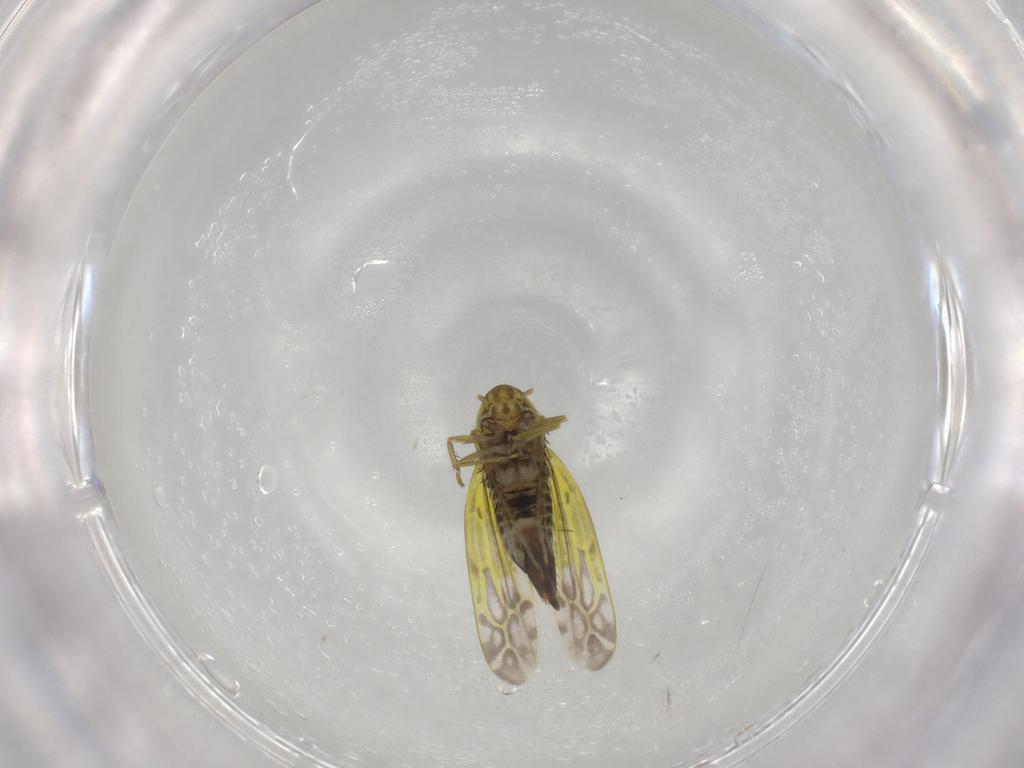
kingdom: Animalia
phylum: Arthropoda
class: Insecta
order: Hemiptera
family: Cicadellidae
